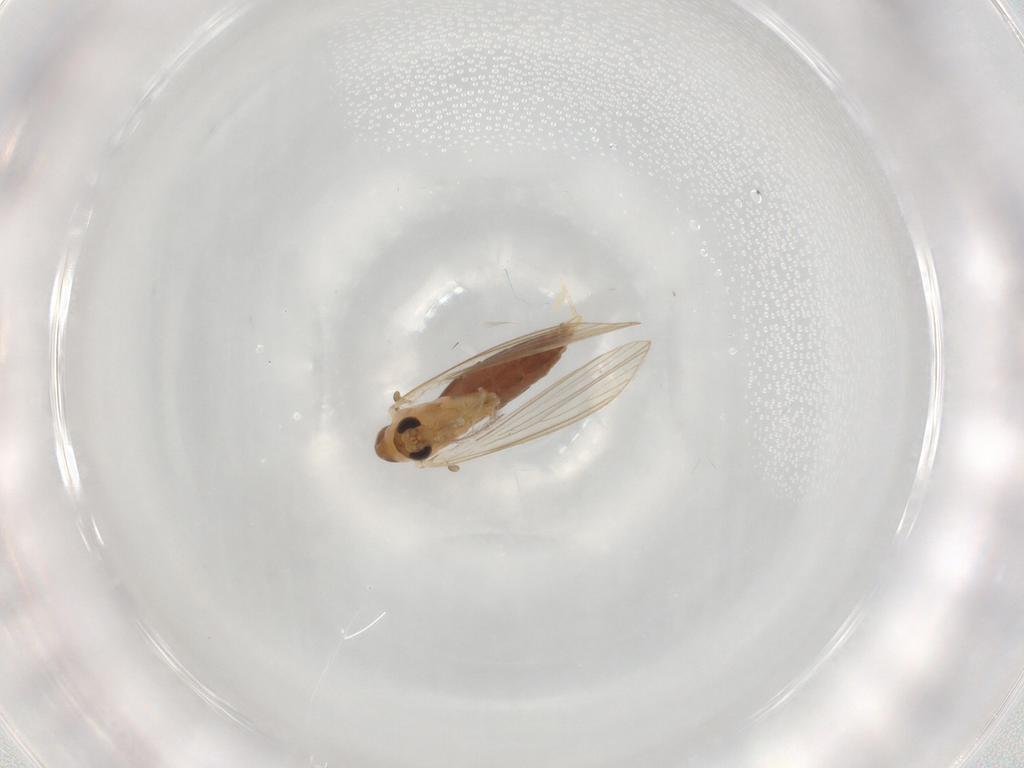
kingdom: Animalia
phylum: Arthropoda
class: Insecta
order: Diptera
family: Psychodidae
